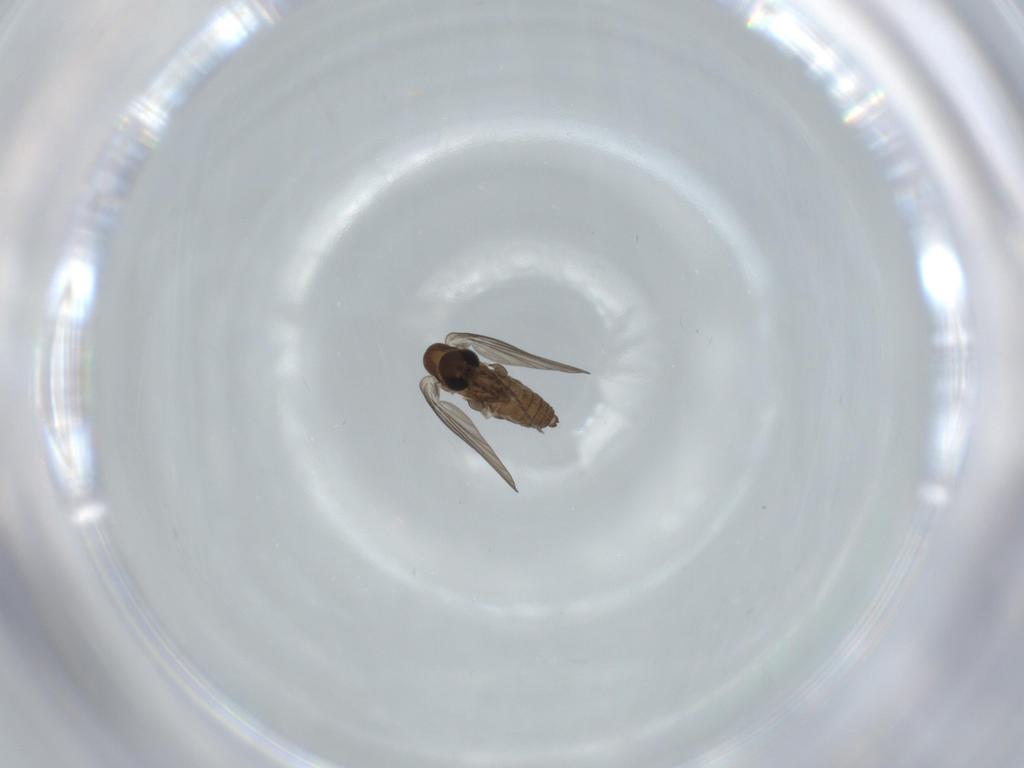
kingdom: Animalia
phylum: Arthropoda
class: Insecta
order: Diptera
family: Psychodidae
